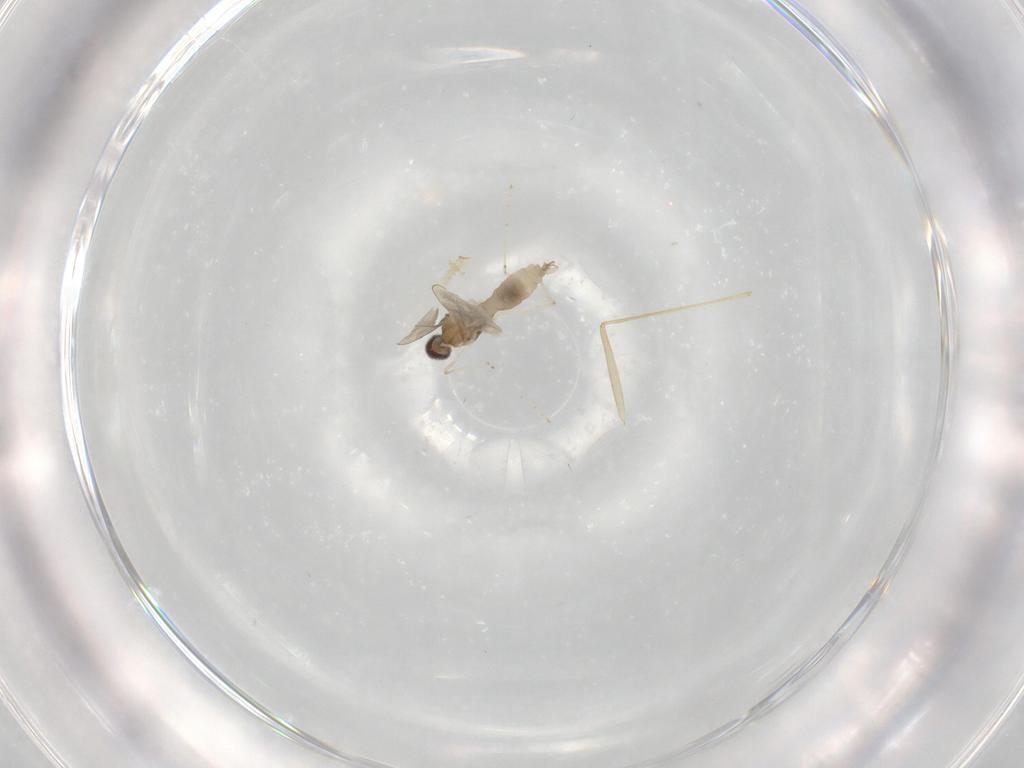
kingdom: Animalia
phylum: Arthropoda
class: Insecta
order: Diptera
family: Cecidomyiidae
